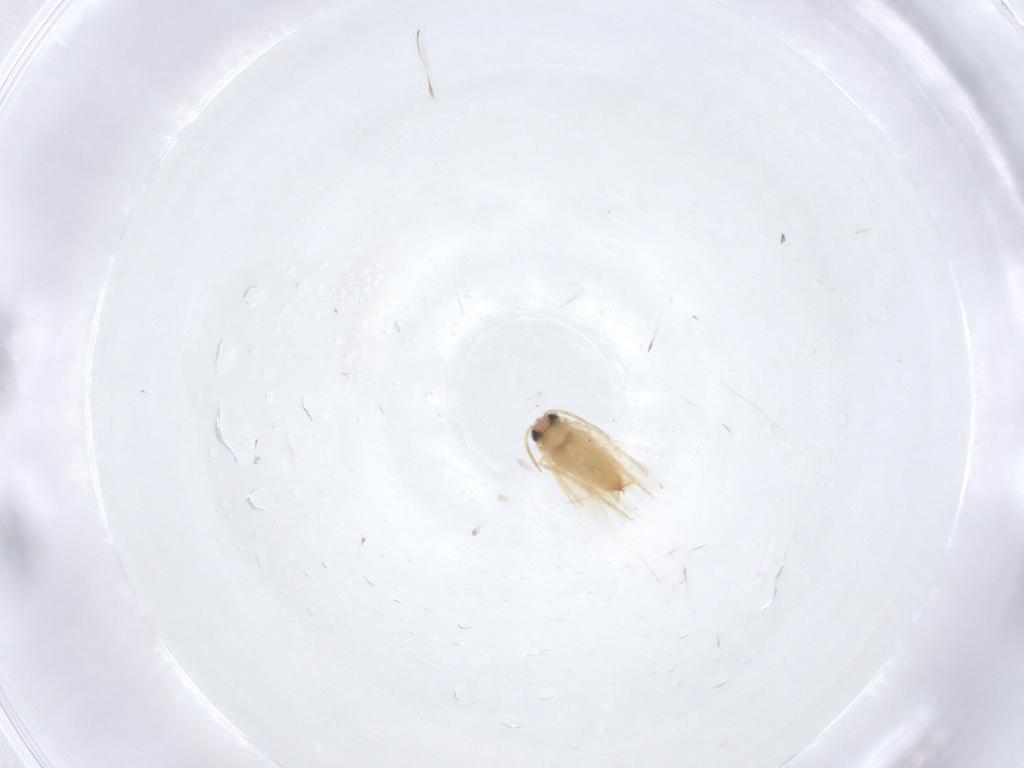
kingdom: Animalia
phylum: Arthropoda
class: Insecta
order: Lepidoptera
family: Crambidae
